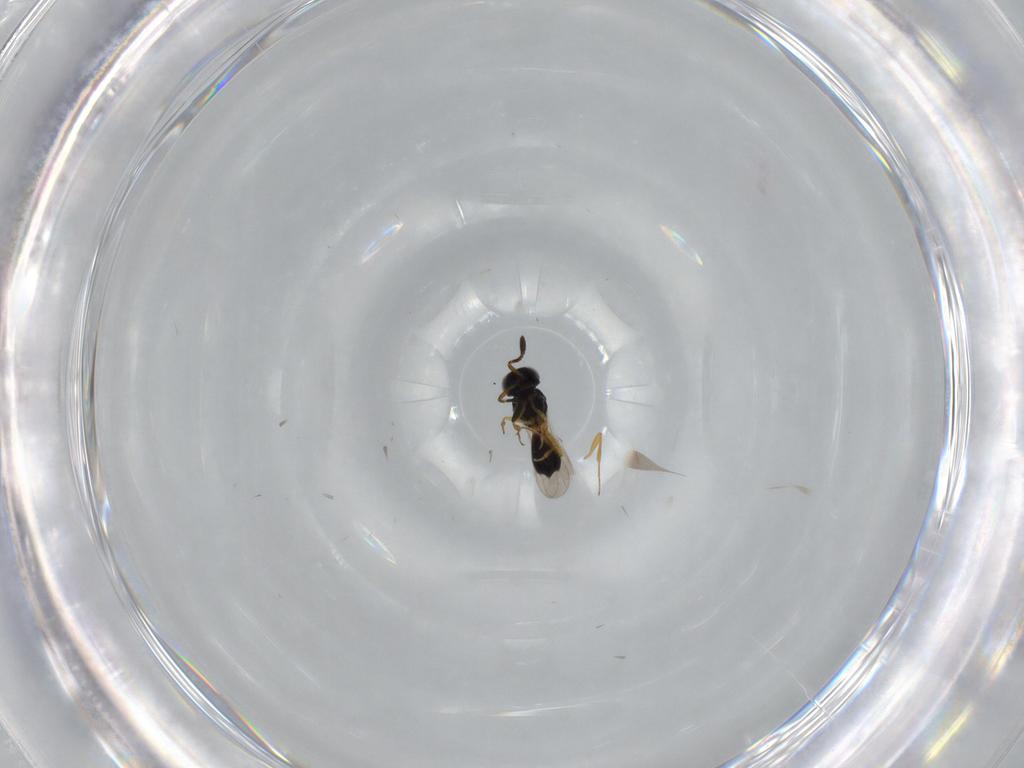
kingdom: Animalia
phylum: Arthropoda
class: Insecta
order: Hymenoptera
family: Scelionidae
